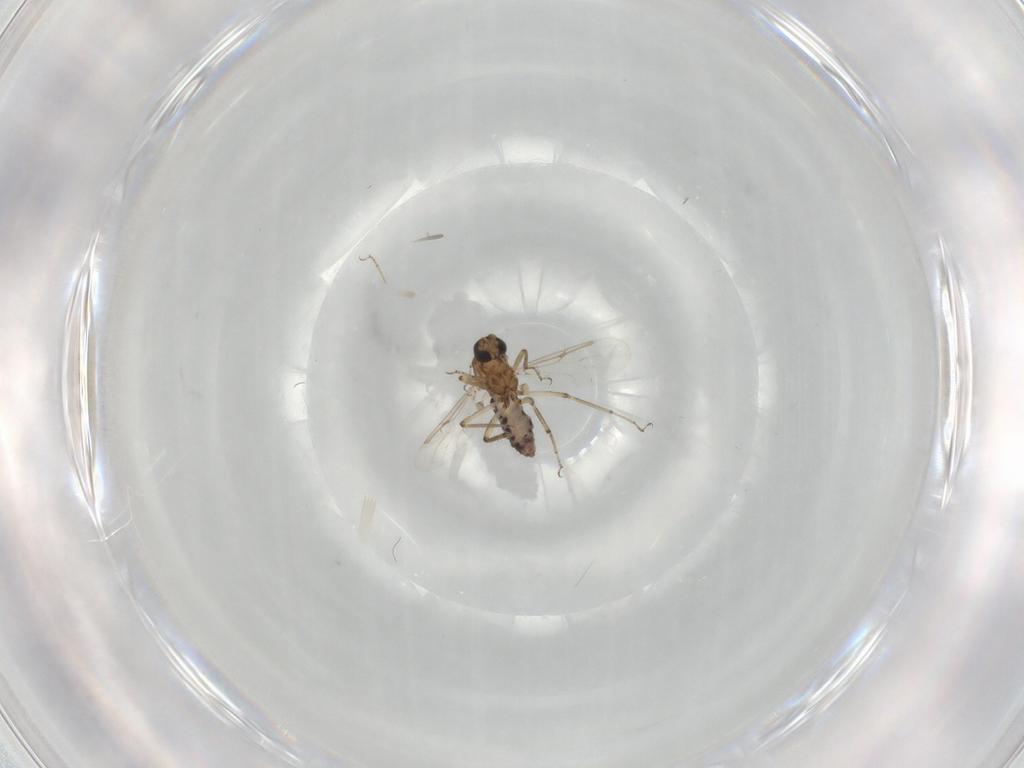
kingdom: Animalia
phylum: Arthropoda
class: Insecta
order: Diptera
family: Ceratopogonidae
